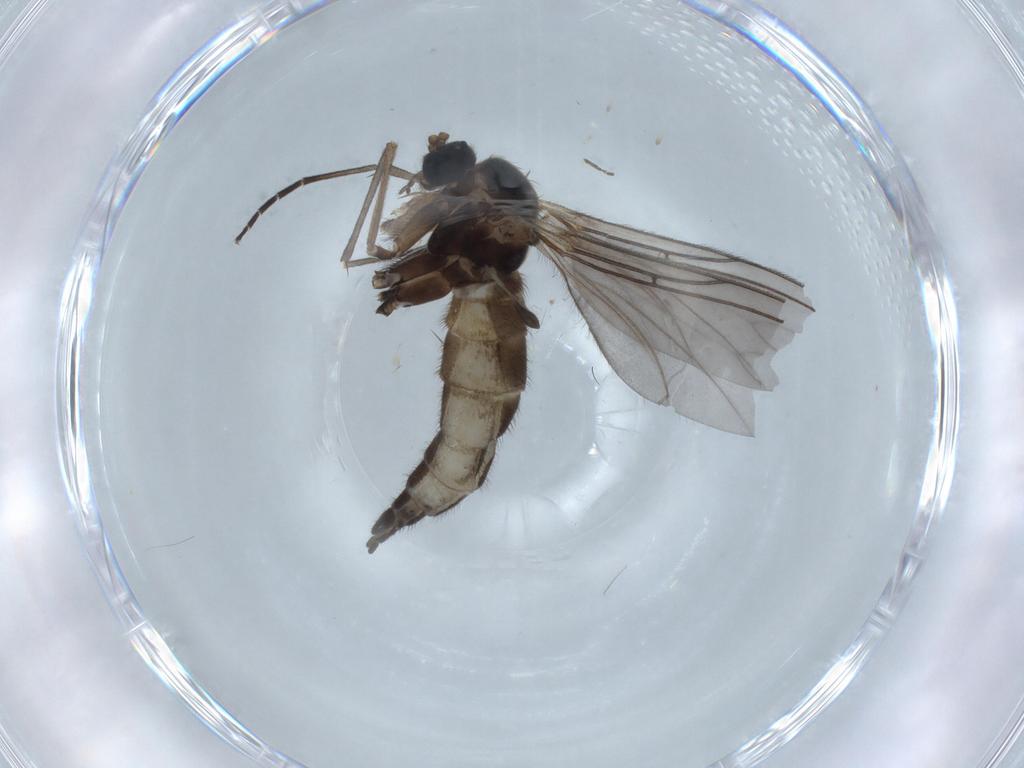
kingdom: Animalia
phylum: Arthropoda
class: Insecta
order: Diptera
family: Sciaridae
